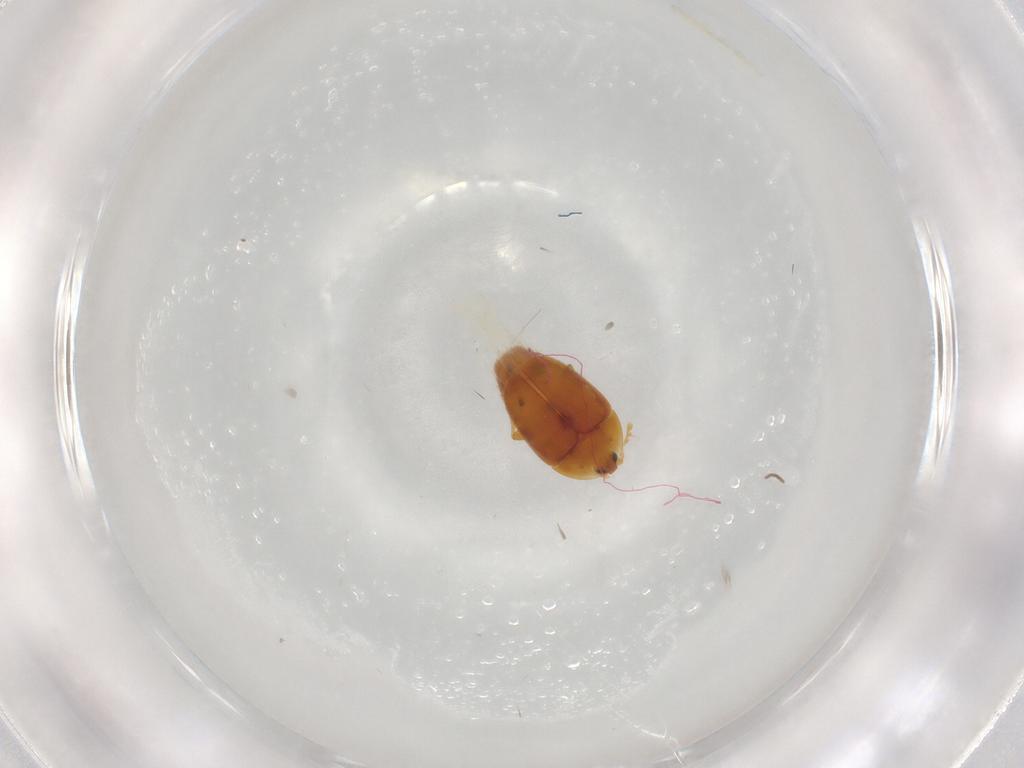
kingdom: Animalia
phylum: Arthropoda
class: Insecta
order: Coleoptera
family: Corylophidae
